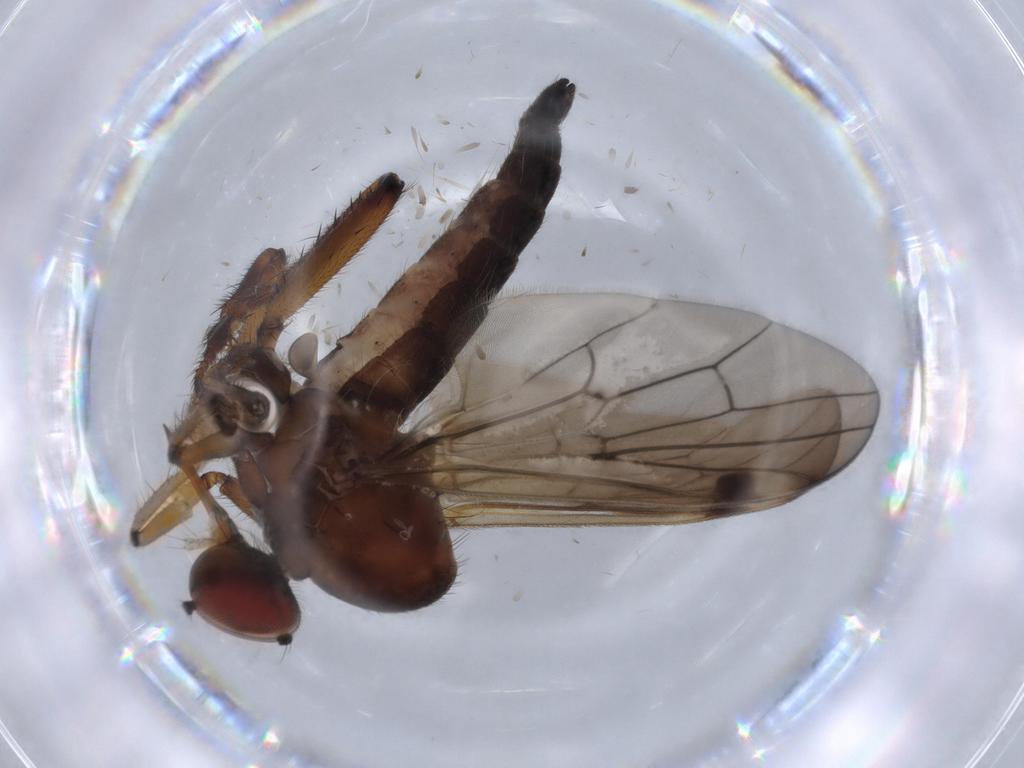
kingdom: Animalia
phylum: Arthropoda
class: Insecta
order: Diptera
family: Hybotidae
